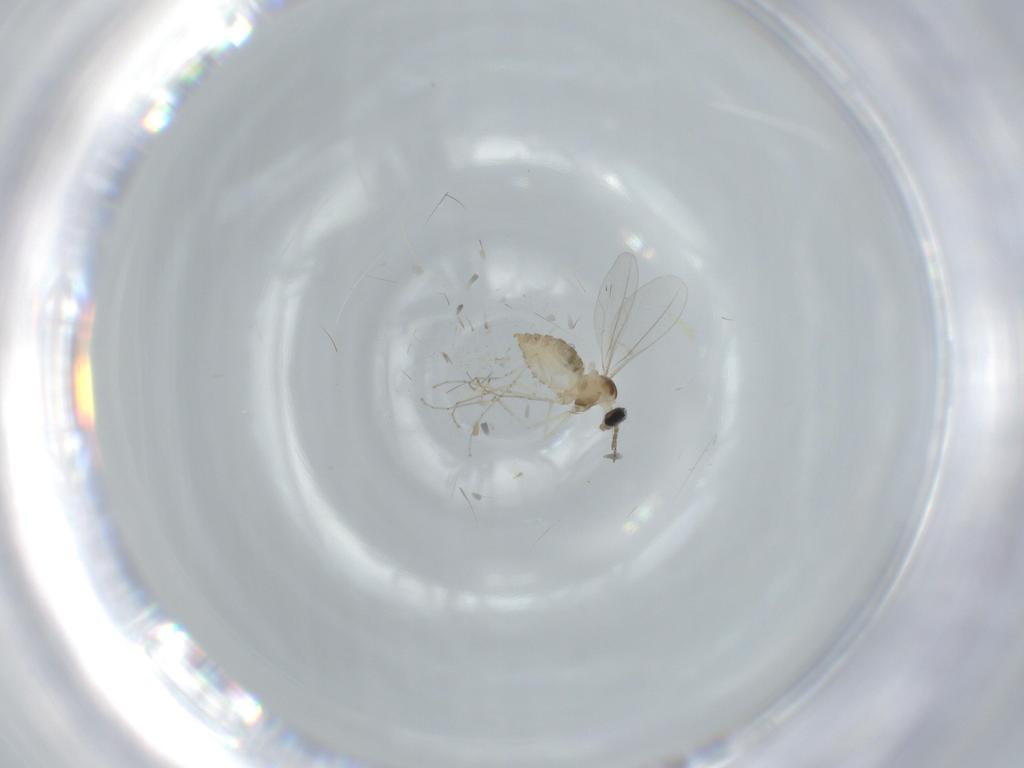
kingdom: Animalia
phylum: Arthropoda
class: Insecta
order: Diptera
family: Cecidomyiidae
